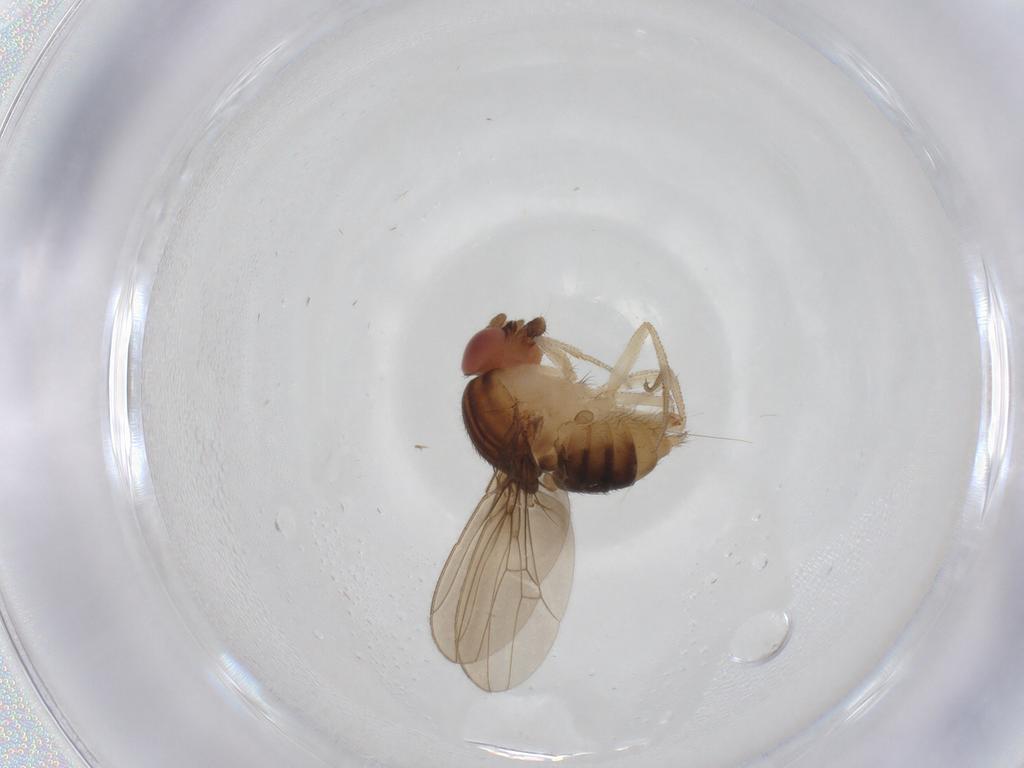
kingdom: Animalia
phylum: Arthropoda
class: Insecta
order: Diptera
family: Drosophilidae
